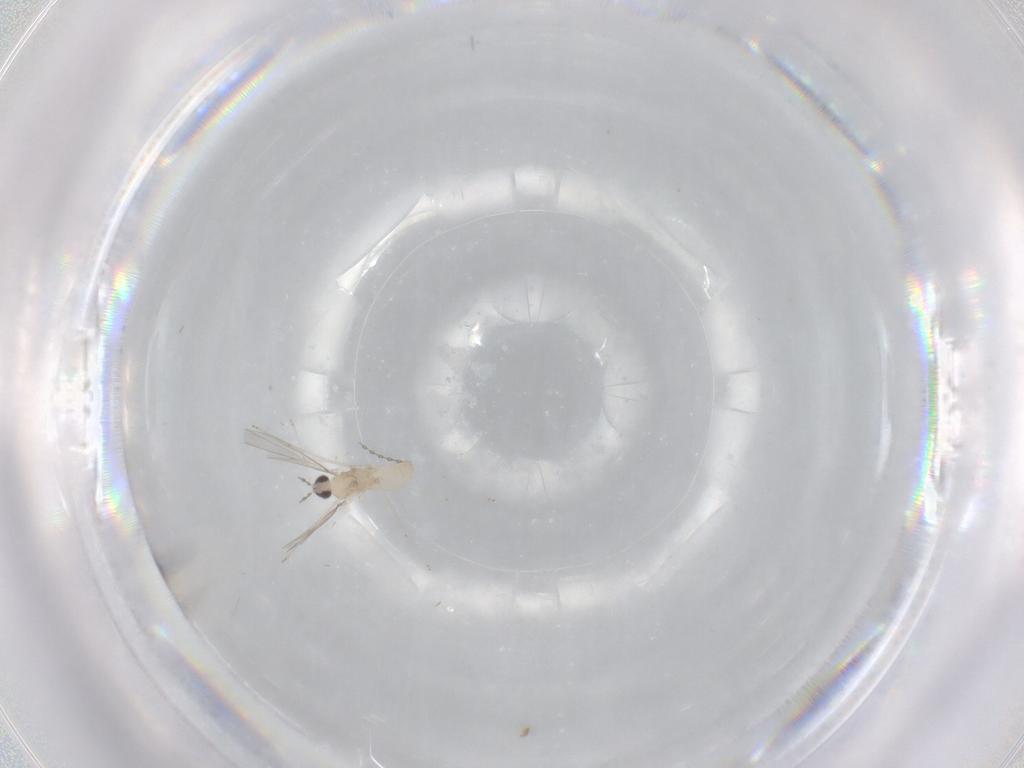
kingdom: Animalia
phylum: Arthropoda
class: Insecta
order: Diptera
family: Cecidomyiidae
